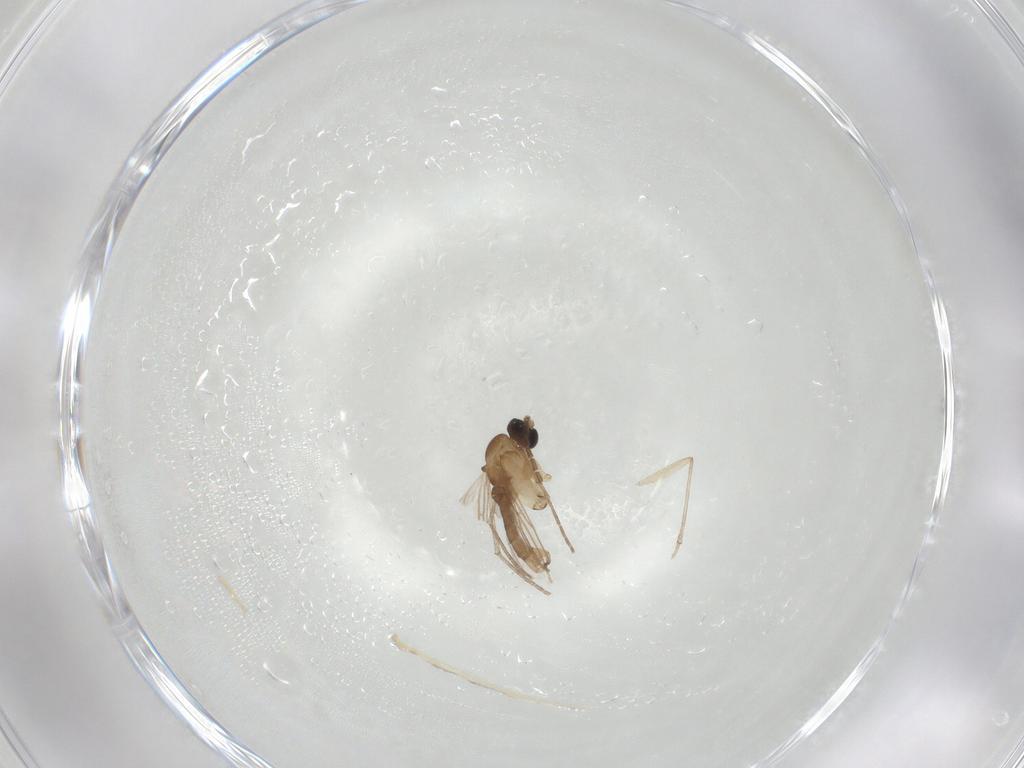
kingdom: Animalia
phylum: Arthropoda
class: Insecta
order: Diptera
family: Sciaridae
